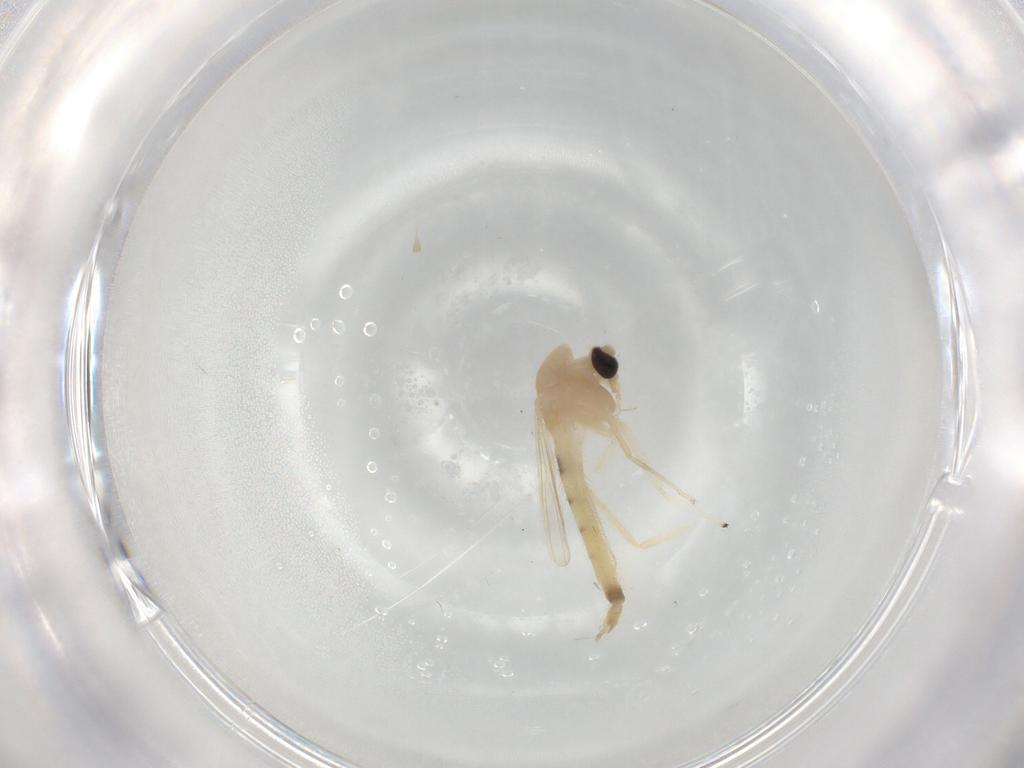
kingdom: Animalia
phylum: Arthropoda
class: Insecta
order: Diptera
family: Chironomidae
